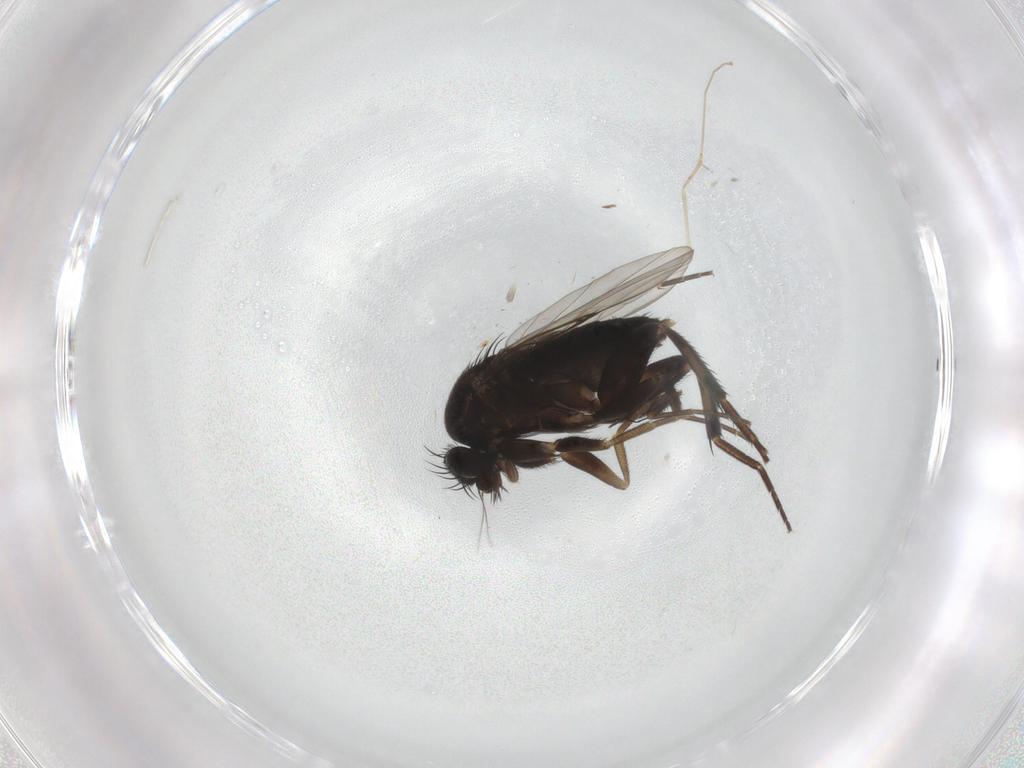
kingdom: Animalia
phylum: Arthropoda
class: Insecta
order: Diptera
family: Phoridae
